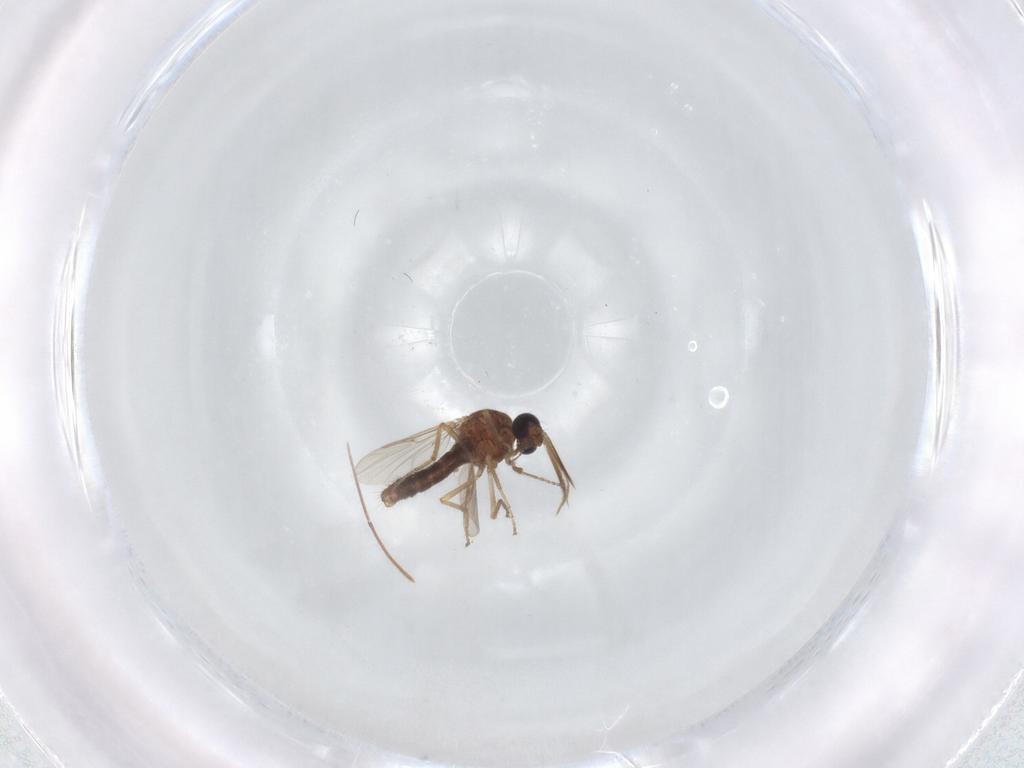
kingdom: Animalia
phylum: Arthropoda
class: Insecta
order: Diptera
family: Ceratopogonidae
